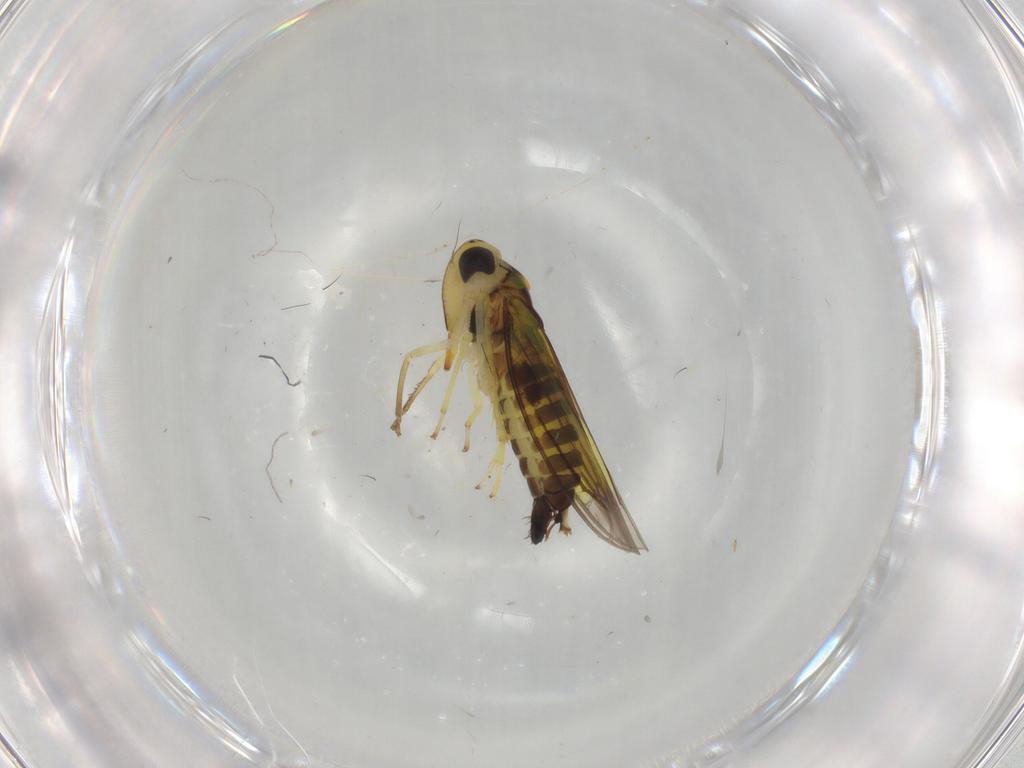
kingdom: Animalia
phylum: Arthropoda
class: Insecta
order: Hemiptera
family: Cicadellidae
